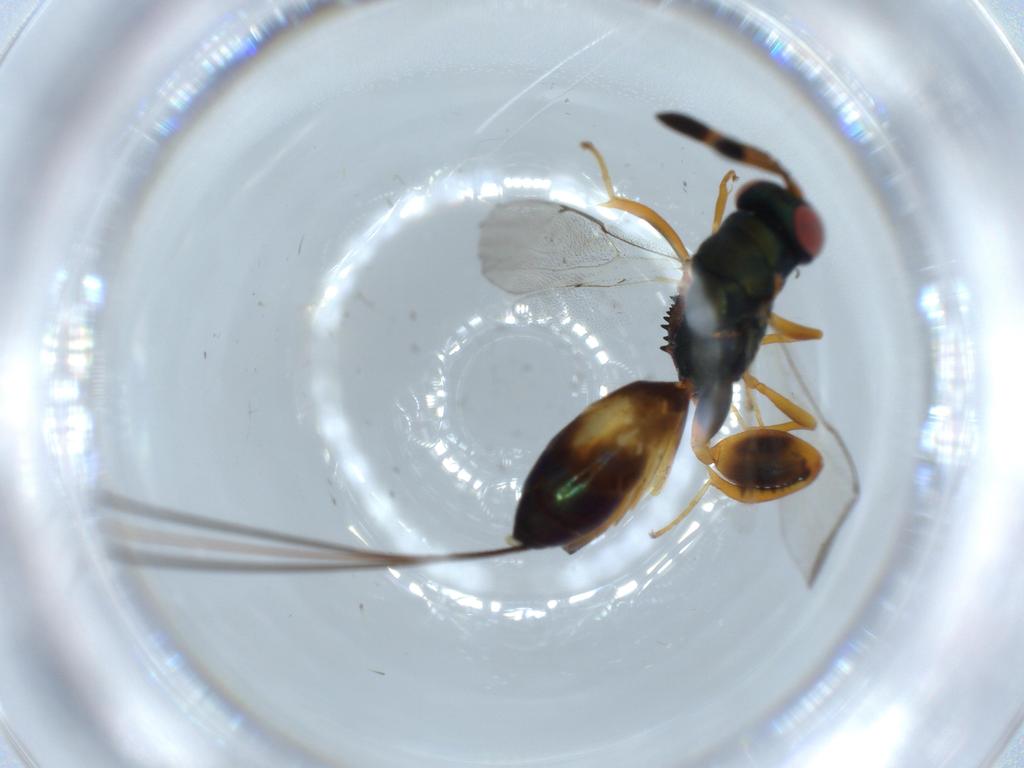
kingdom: Animalia
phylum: Arthropoda
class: Insecta
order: Hymenoptera
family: Torymidae
